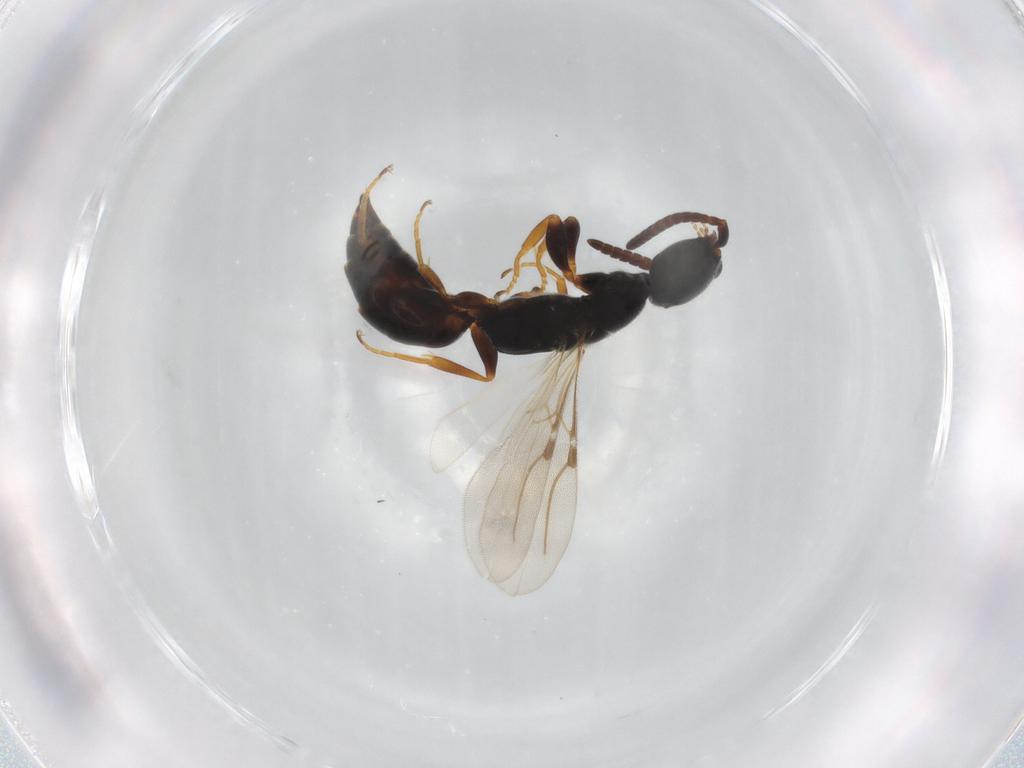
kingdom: Animalia
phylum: Arthropoda
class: Insecta
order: Hymenoptera
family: Bethylidae
